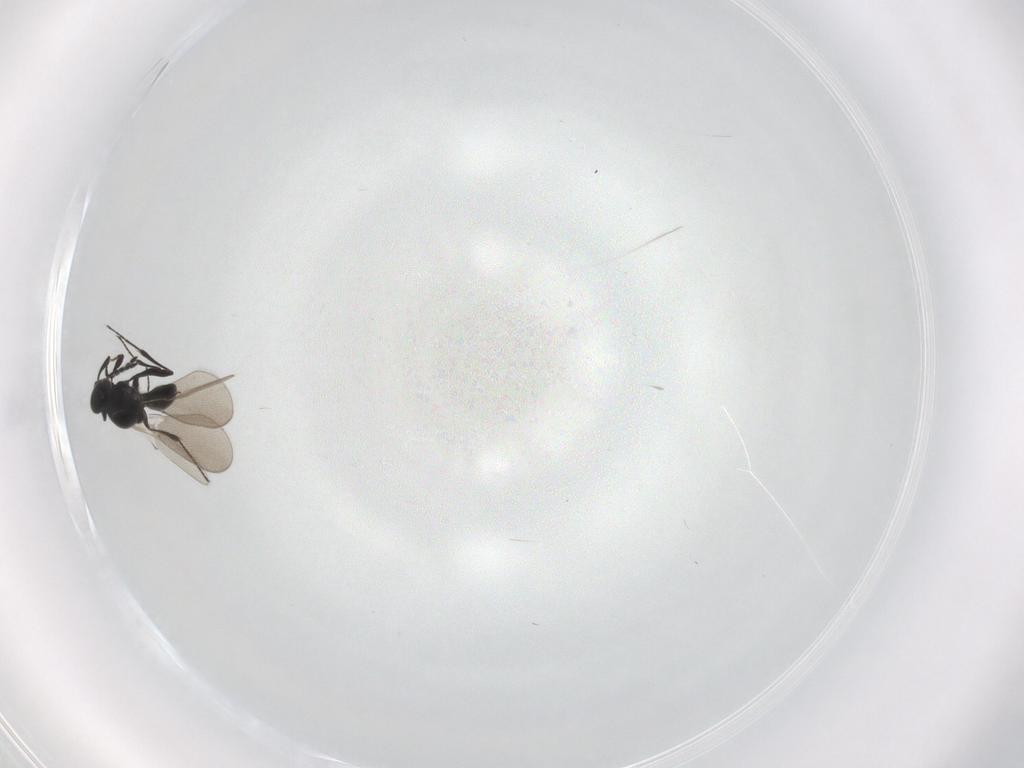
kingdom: Animalia
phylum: Arthropoda
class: Insecta
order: Hymenoptera
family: Platygastridae
